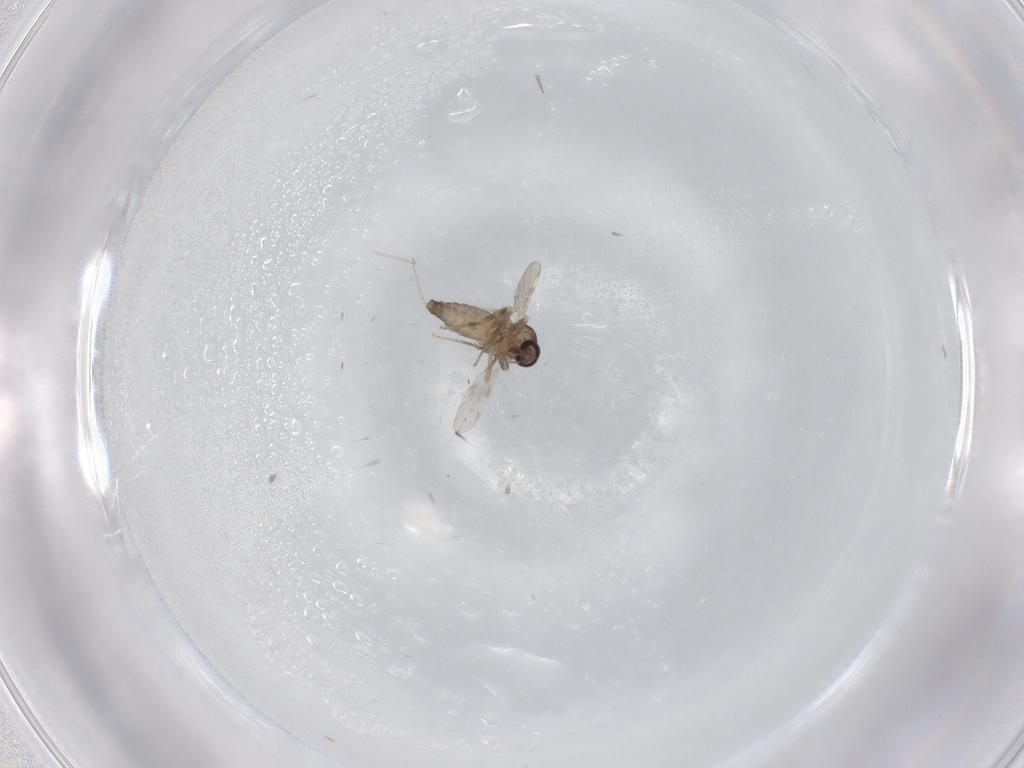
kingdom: Animalia
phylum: Arthropoda
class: Insecta
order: Diptera
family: Ceratopogonidae
